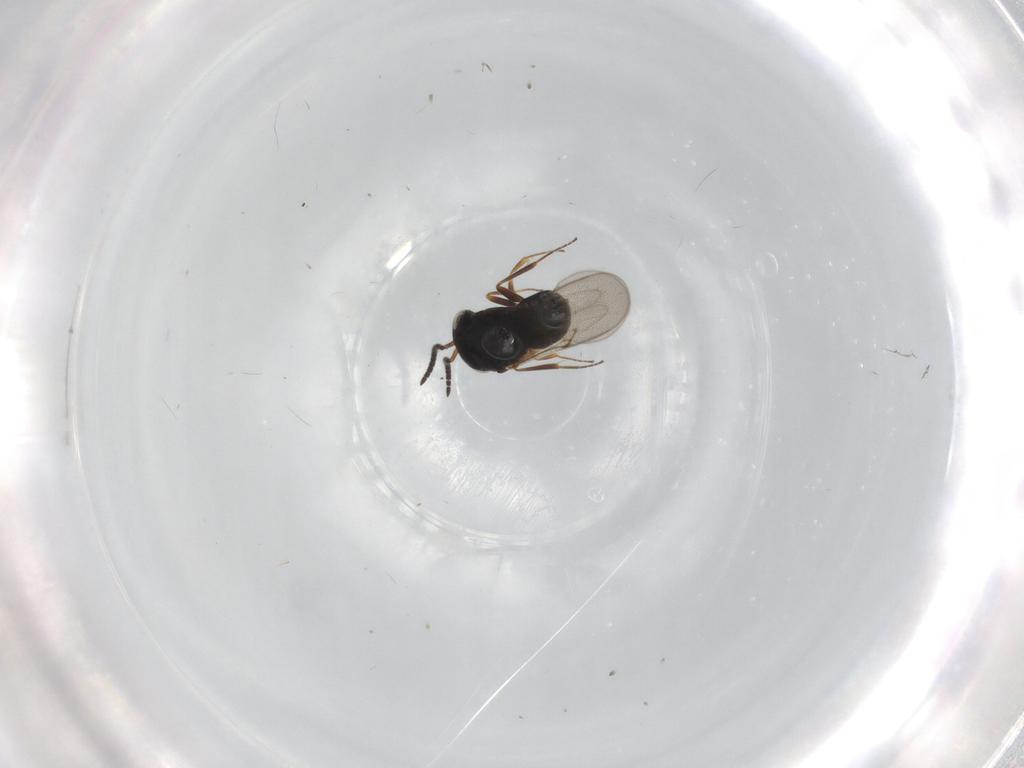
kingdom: Animalia
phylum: Arthropoda
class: Insecta
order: Hymenoptera
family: Scelionidae
